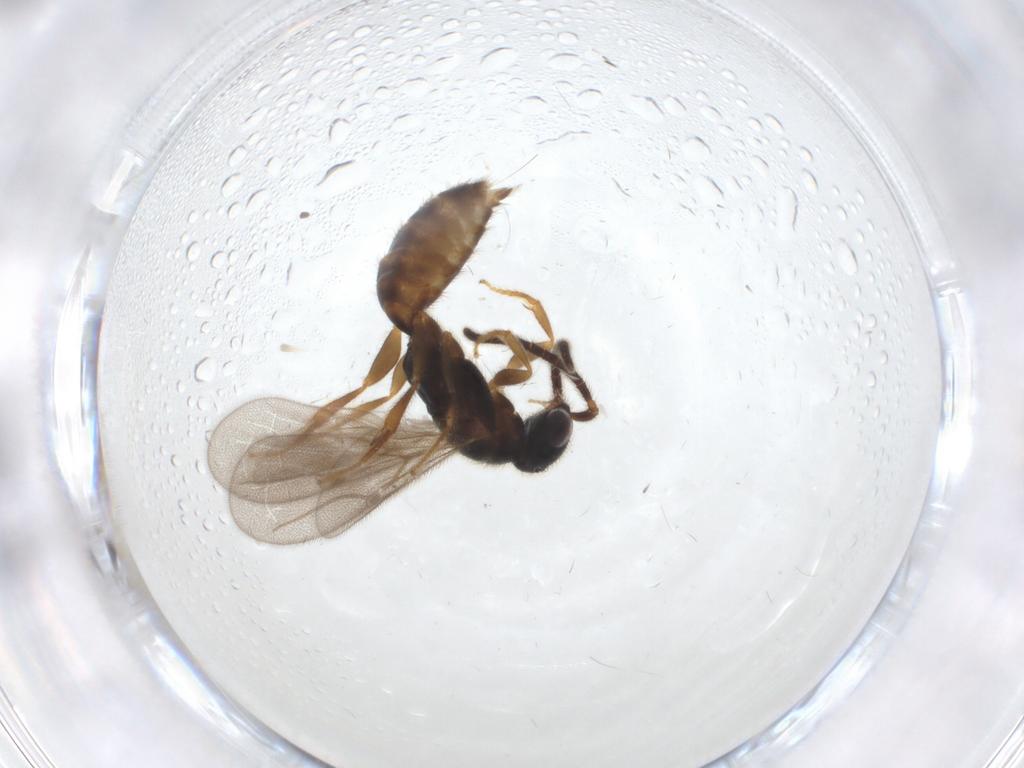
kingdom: Animalia
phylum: Arthropoda
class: Insecta
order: Hymenoptera
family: Bethylidae
